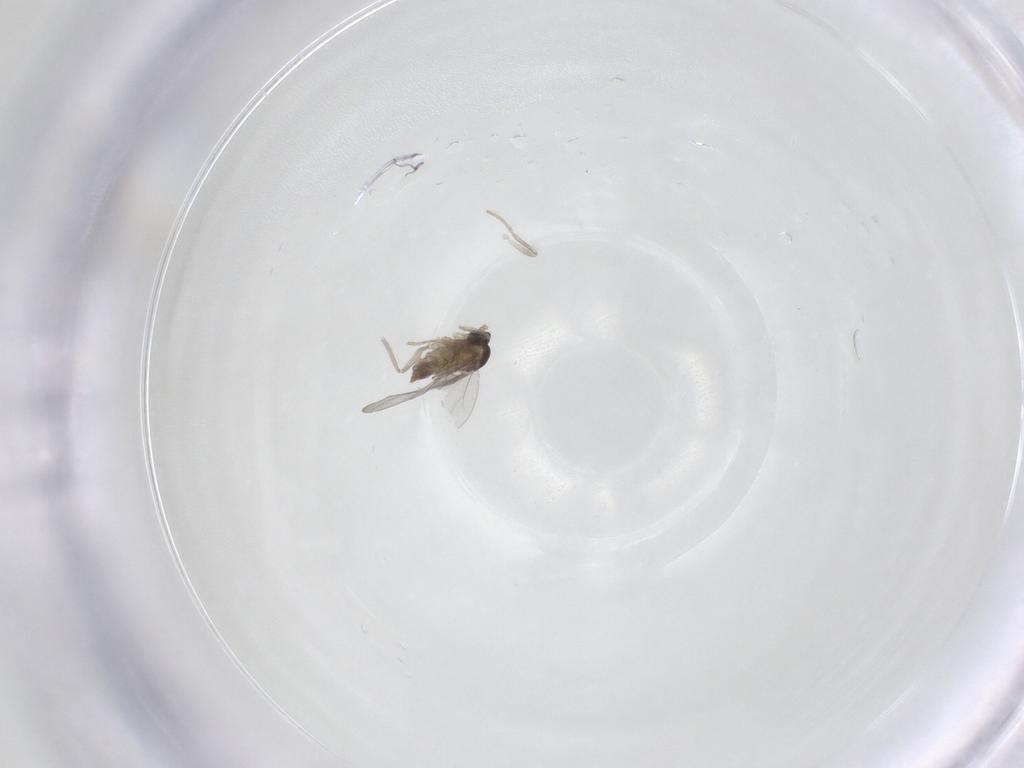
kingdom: Animalia
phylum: Arthropoda
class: Insecta
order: Diptera
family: Cecidomyiidae
